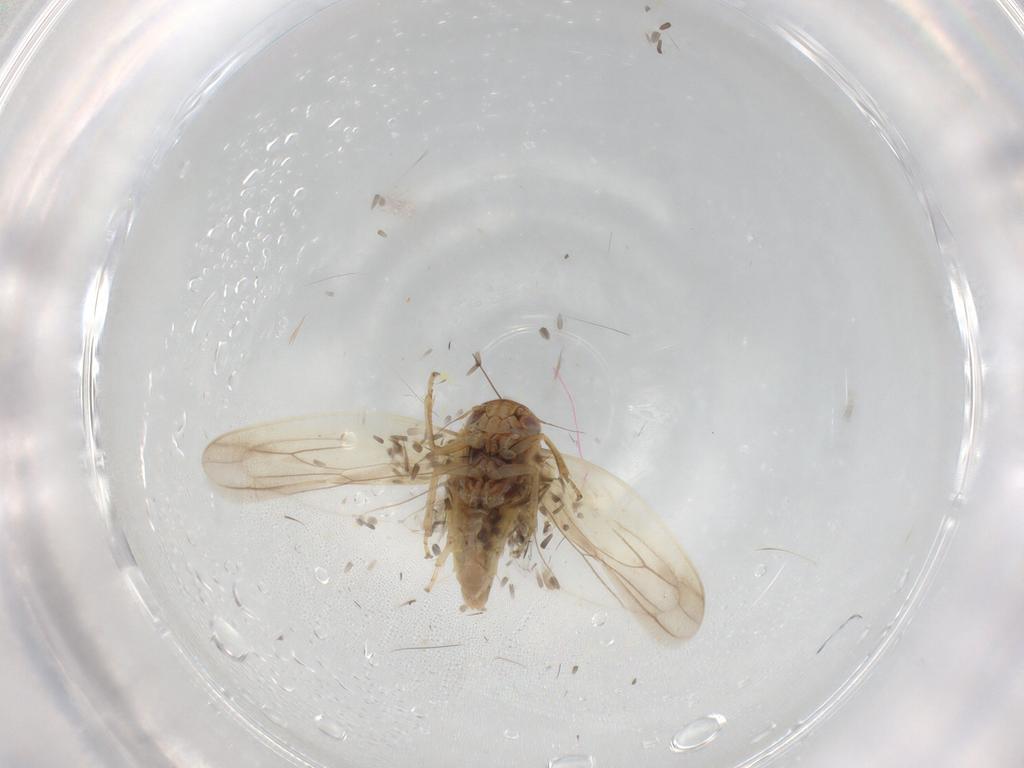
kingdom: Animalia
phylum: Arthropoda
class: Insecta
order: Hemiptera
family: Cicadellidae
